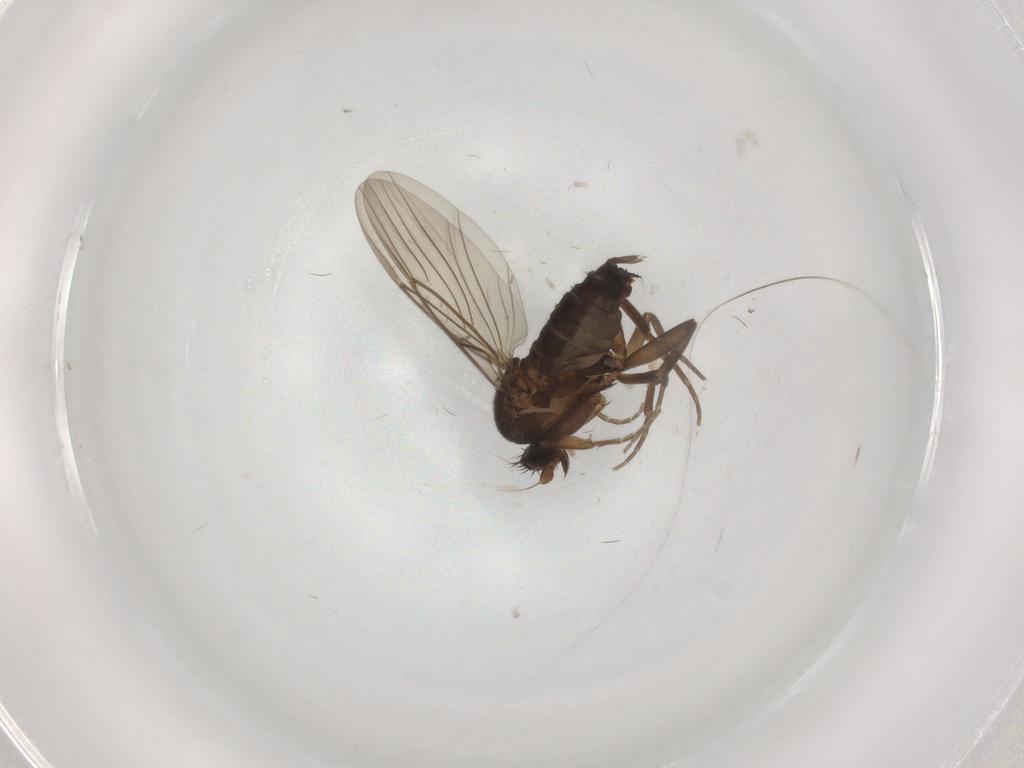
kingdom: Animalia
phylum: Arthropoda
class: Insecta
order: Diptera
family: Phoridae
